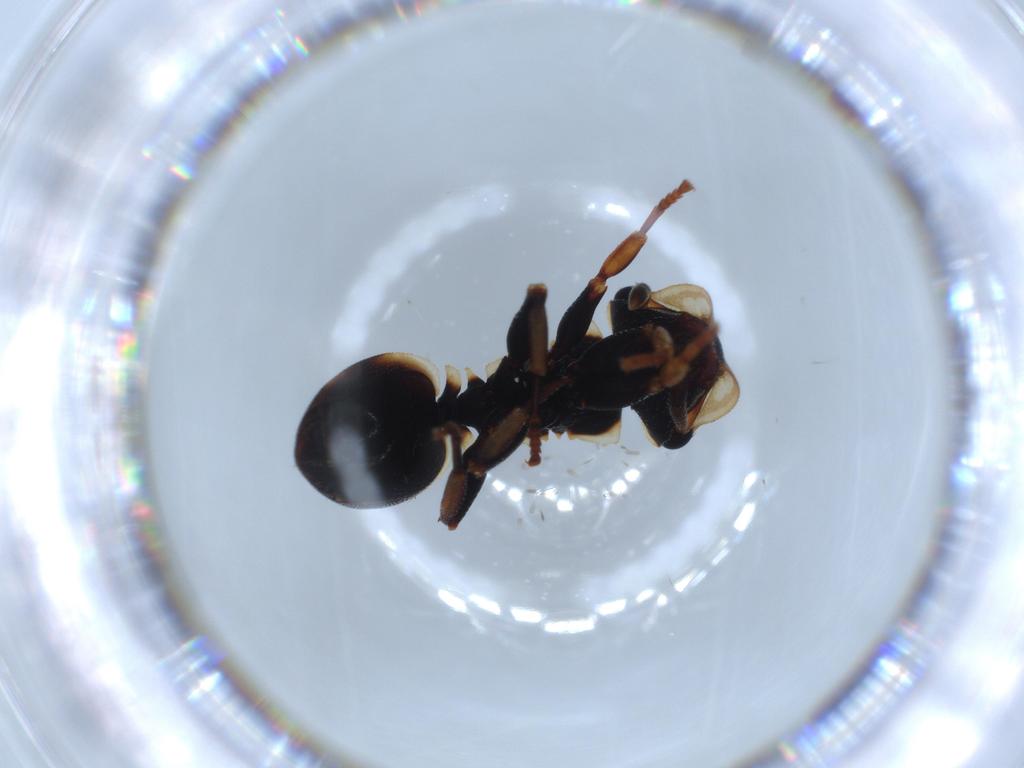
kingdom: Animalia
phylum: Arthropoda
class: Insecta
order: Hymenoptera
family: Formicidae
